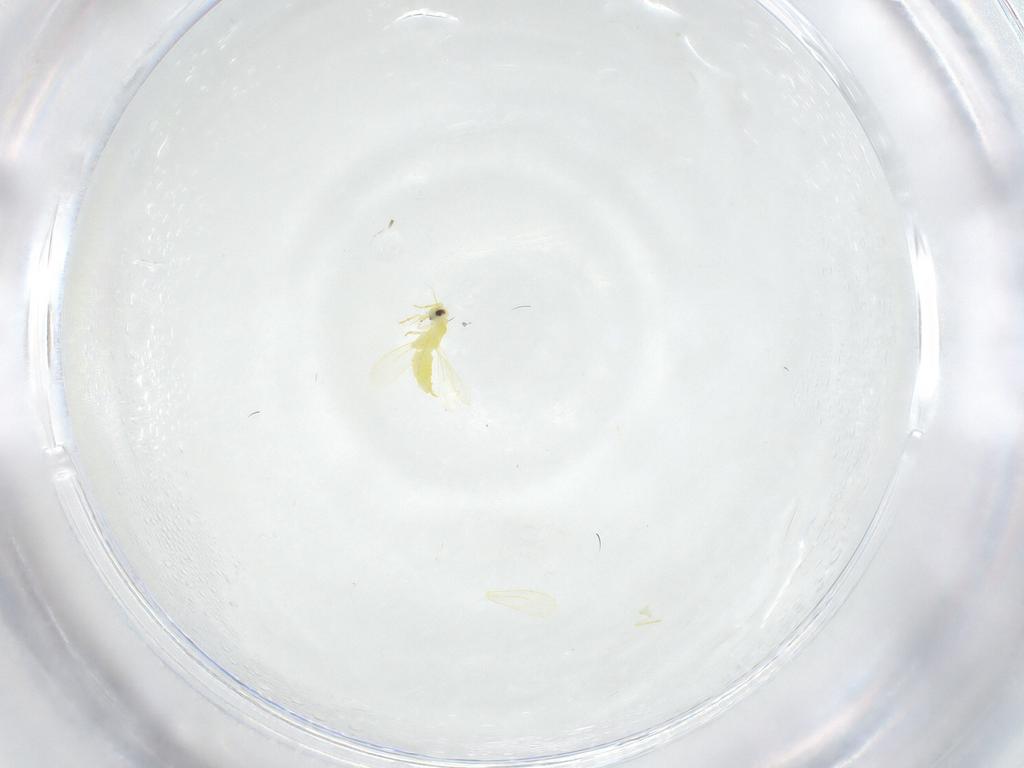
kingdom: Animalia
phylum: Arthropoda
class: Insecta
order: Hemiptera
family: Aleyrodidae
